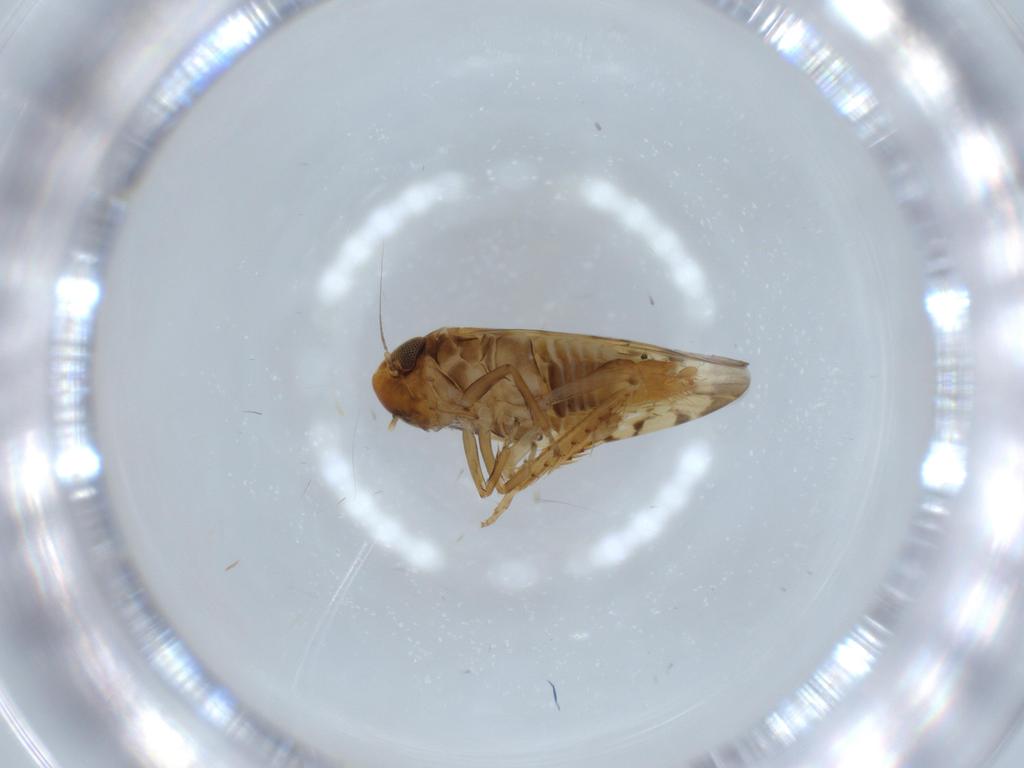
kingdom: Animalia
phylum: Arthropoda
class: Insecta
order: Hemiptera
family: Cicadellidae
